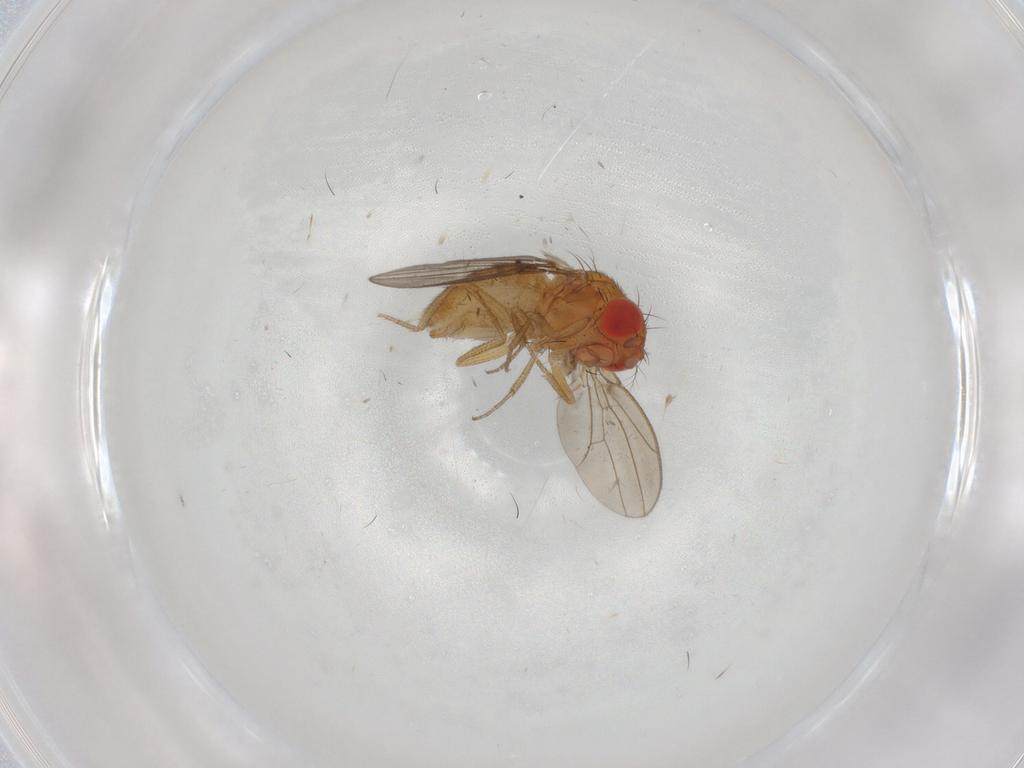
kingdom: Animalia
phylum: Arthropoda
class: Insecta
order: Diptera
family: Drosophilidae
